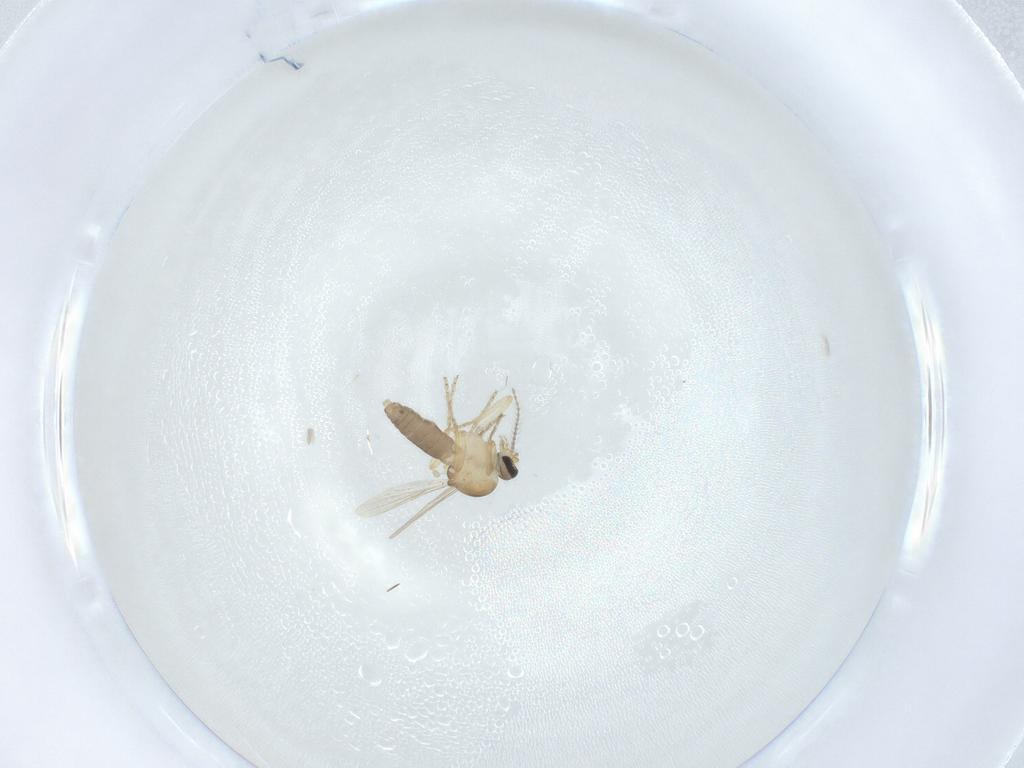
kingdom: Animalia
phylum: Arthropoda
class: Insecta
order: Diptera
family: Ceratopogonidae
